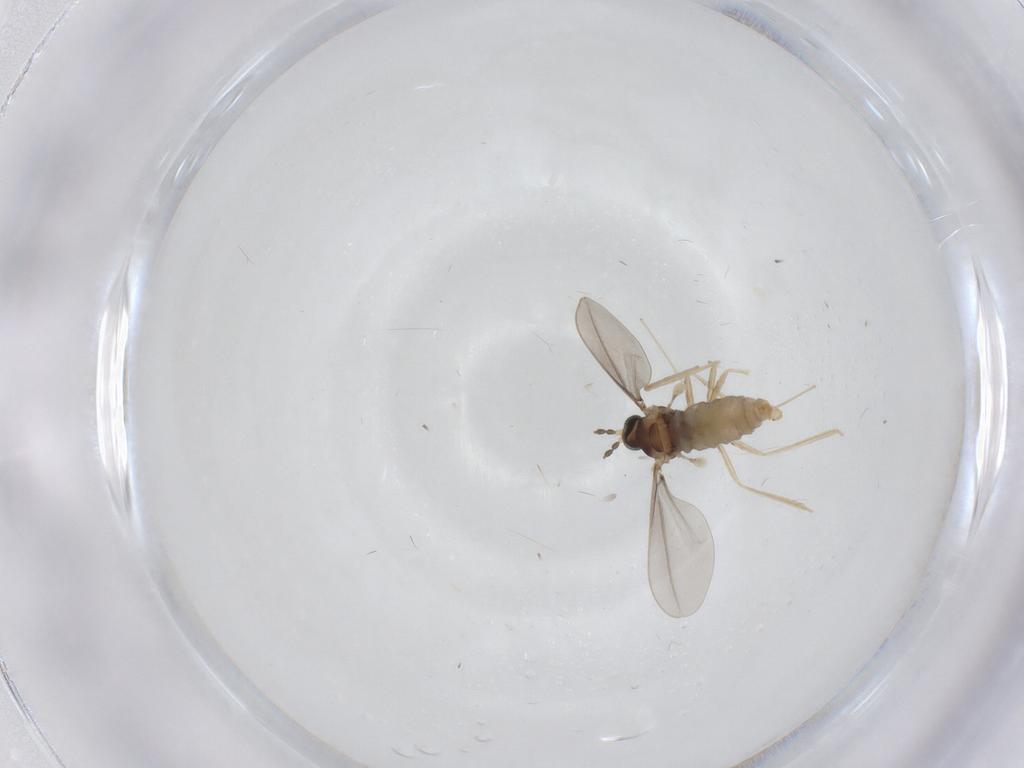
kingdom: Animalia
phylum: Arthropoda
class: Insecta
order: Diptera
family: Cecidomyiidae
